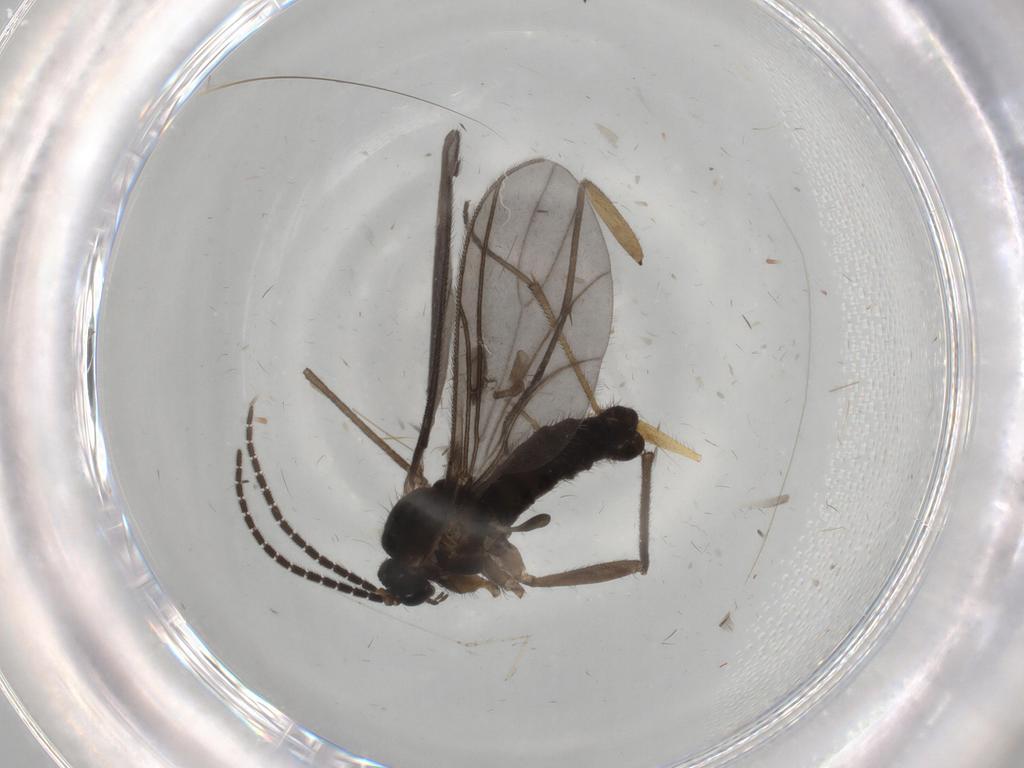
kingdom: Animalia
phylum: Arthropoda
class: Insecta
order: Diptera
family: Sciaridae
